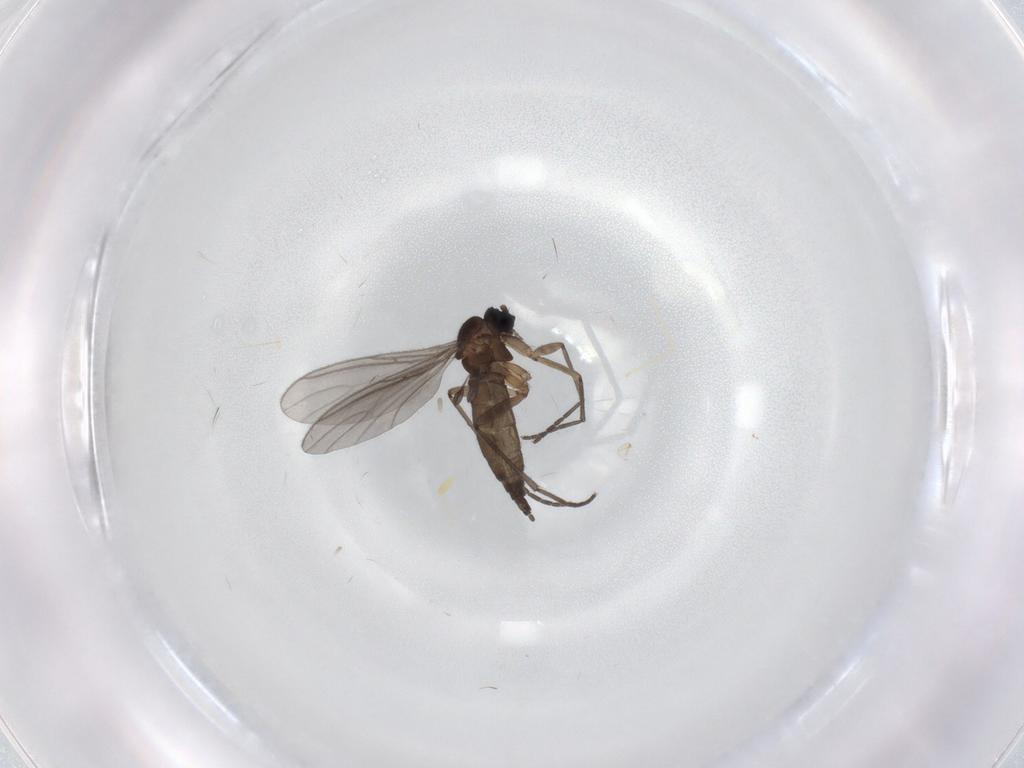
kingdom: Animalia
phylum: Arthropoda
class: Insecta
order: Diptera
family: Sciaridae
